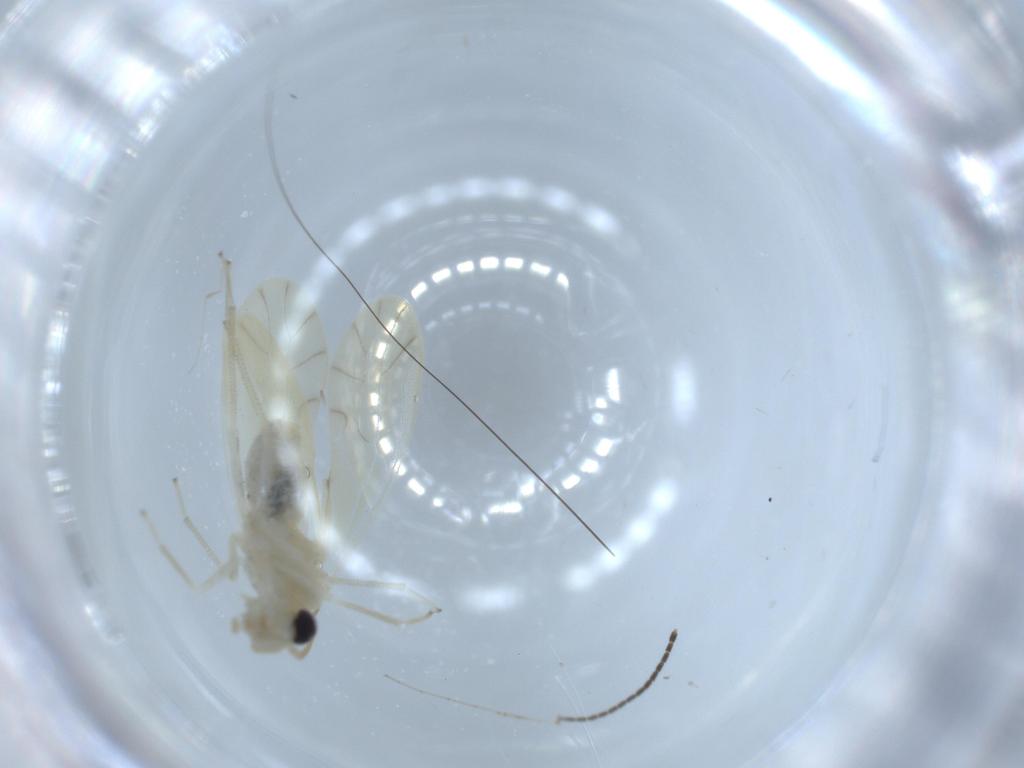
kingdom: Animalia
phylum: Arthropoda
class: Insecta
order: Psocodea
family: Caeciliusidae
